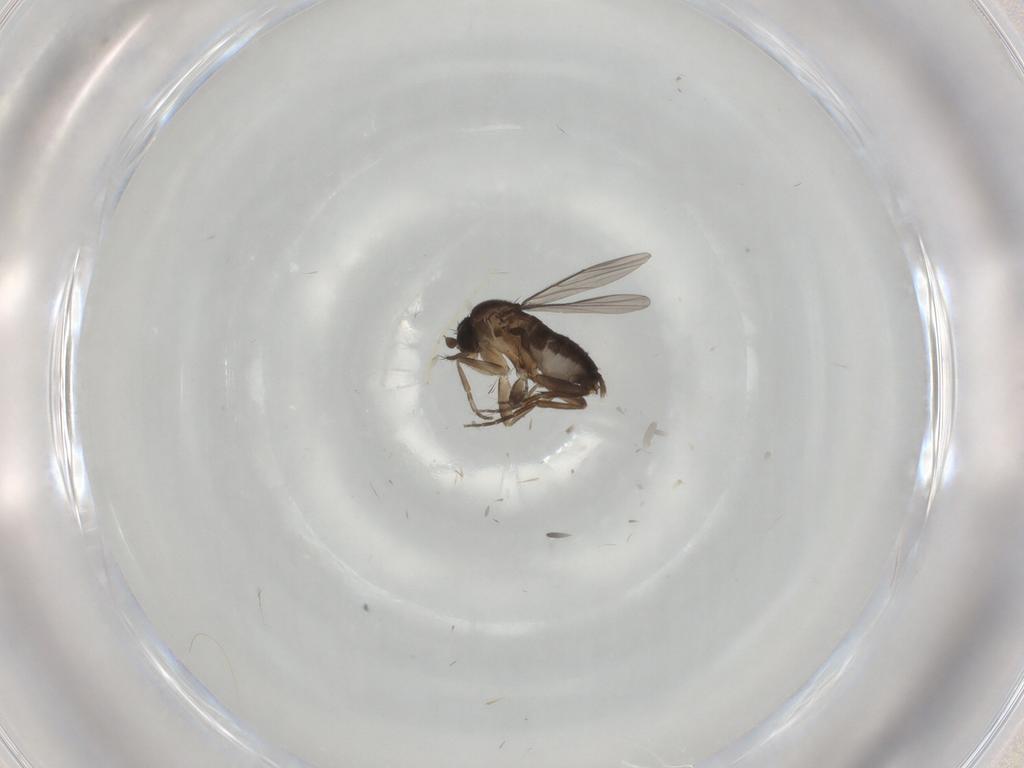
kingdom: Animalia
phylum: Arthropoda
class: Insecta
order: Diptera
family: Phoridae
